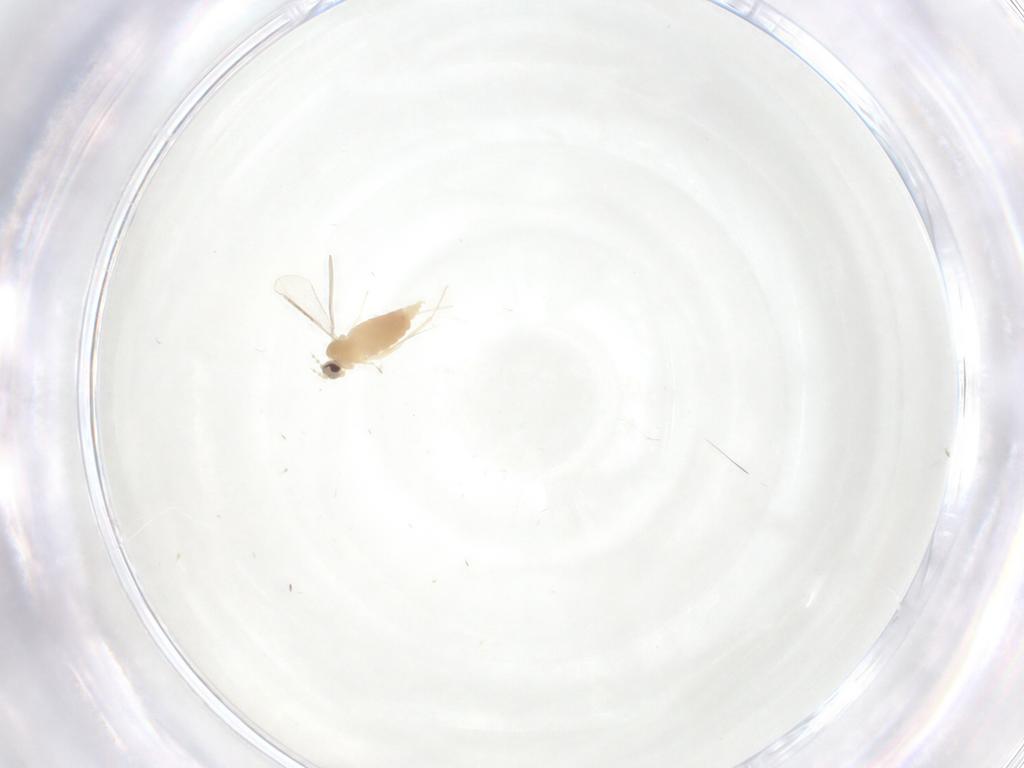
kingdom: Animalia
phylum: Arthropoda
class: Insecta
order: Diptera
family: Cecidomyiidae
